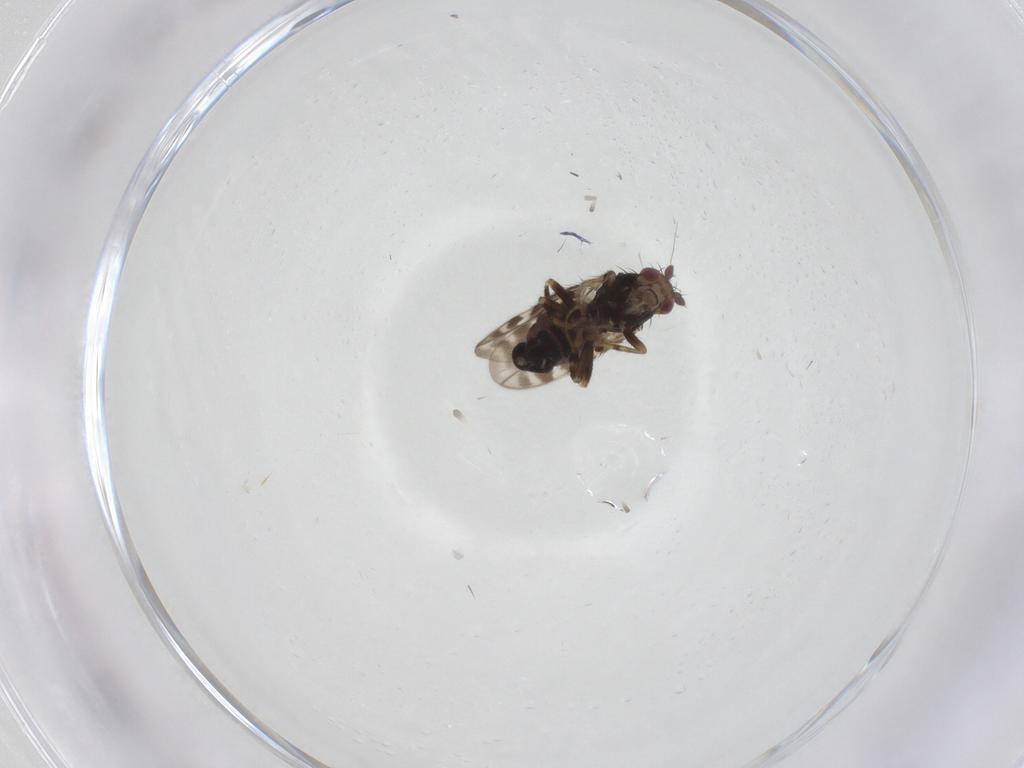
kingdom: Animalia
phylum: Arthropoda
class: Insecta
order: Diptera
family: Sphaeroceridae
